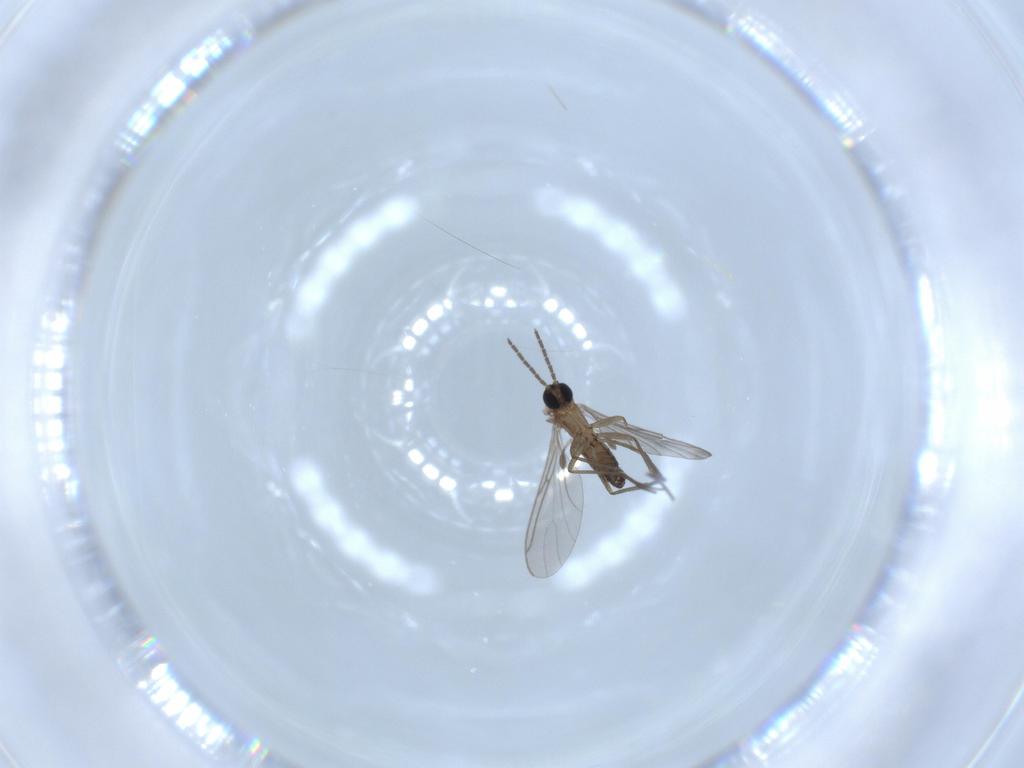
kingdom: Animalia
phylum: Arthropoda
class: Insecta
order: Diptera
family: Sciaridae
